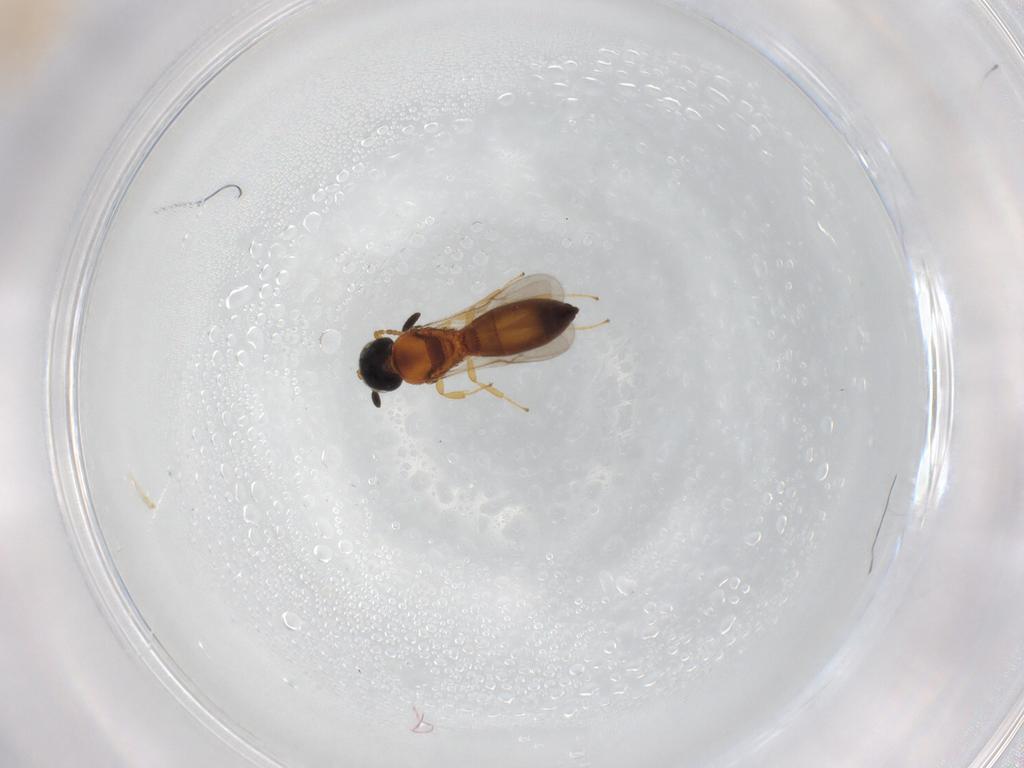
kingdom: Animalia
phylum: Arthropoda
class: Insecta
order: Hymenoptera
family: Scelionidae
